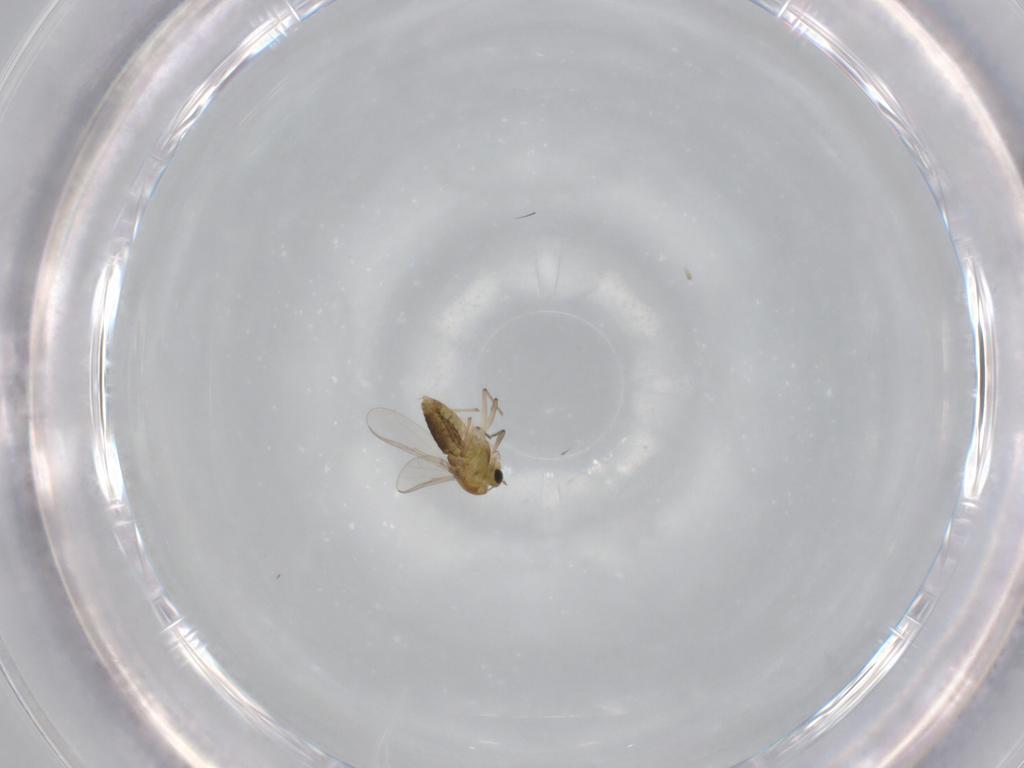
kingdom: Animalia
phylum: Arthropoda
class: Insecta
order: Diptera
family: Chironomidae
